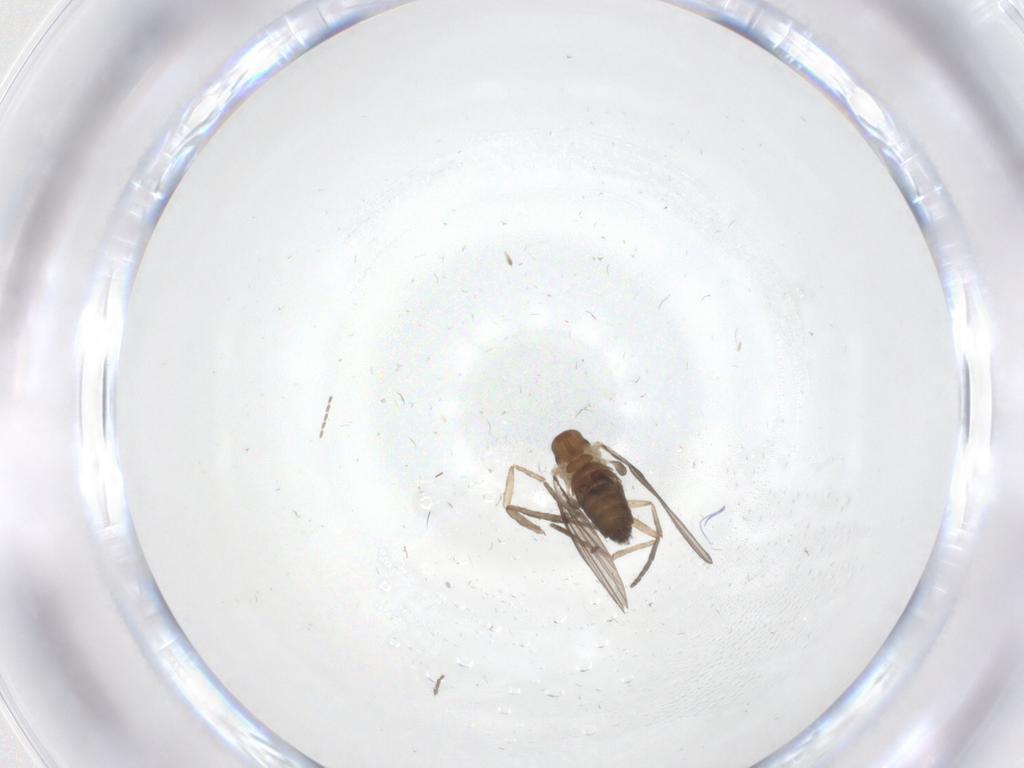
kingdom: Animalia
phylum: Arthropoda
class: Insecta
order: Diptera
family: Psychodidae
